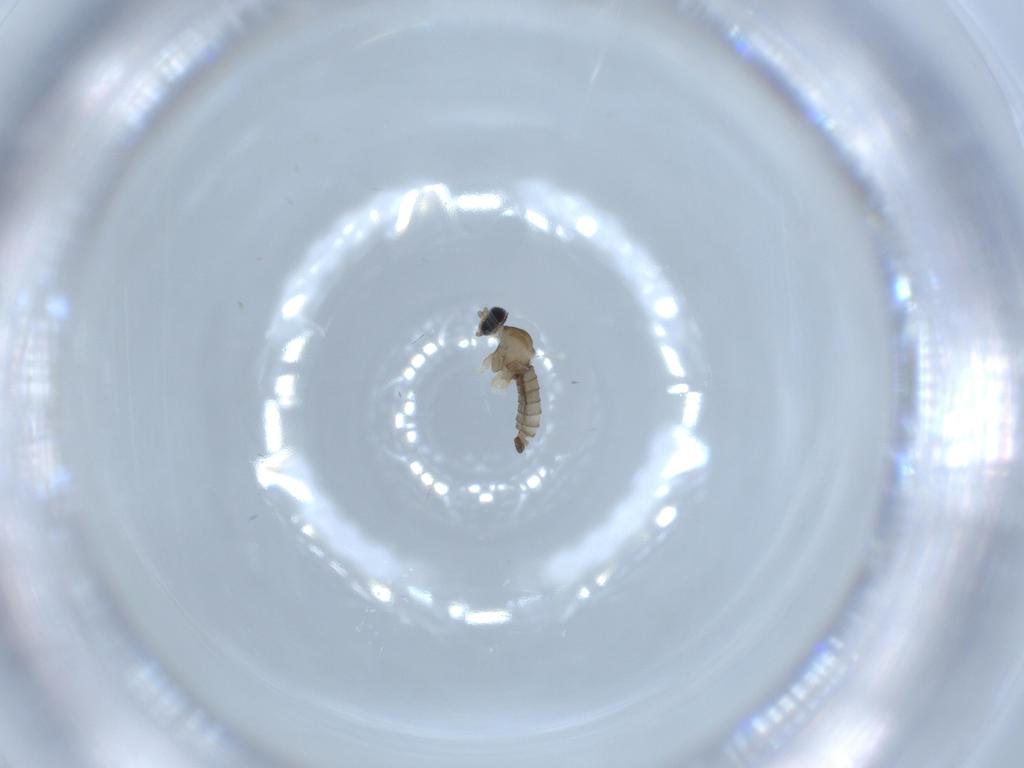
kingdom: Animalia
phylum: Arthropoda
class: Insecta
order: Diptera
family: Cecidomyiidae
